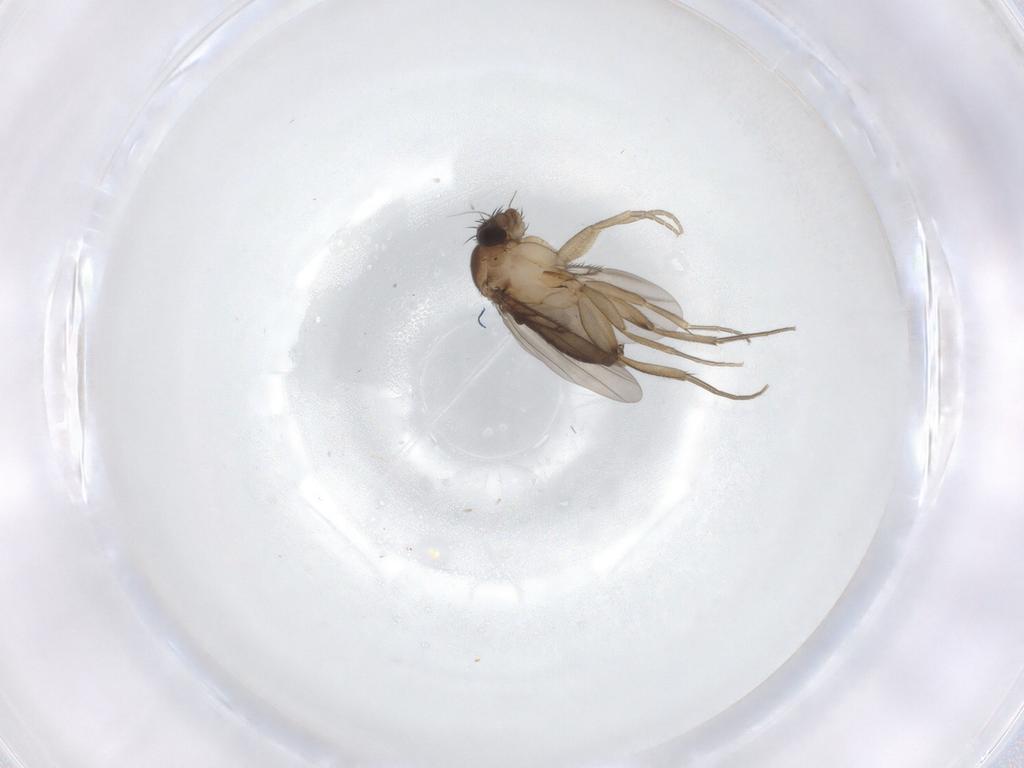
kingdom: Animalia
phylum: Arthropoda
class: Insecta
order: Diptera
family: Phoridae
